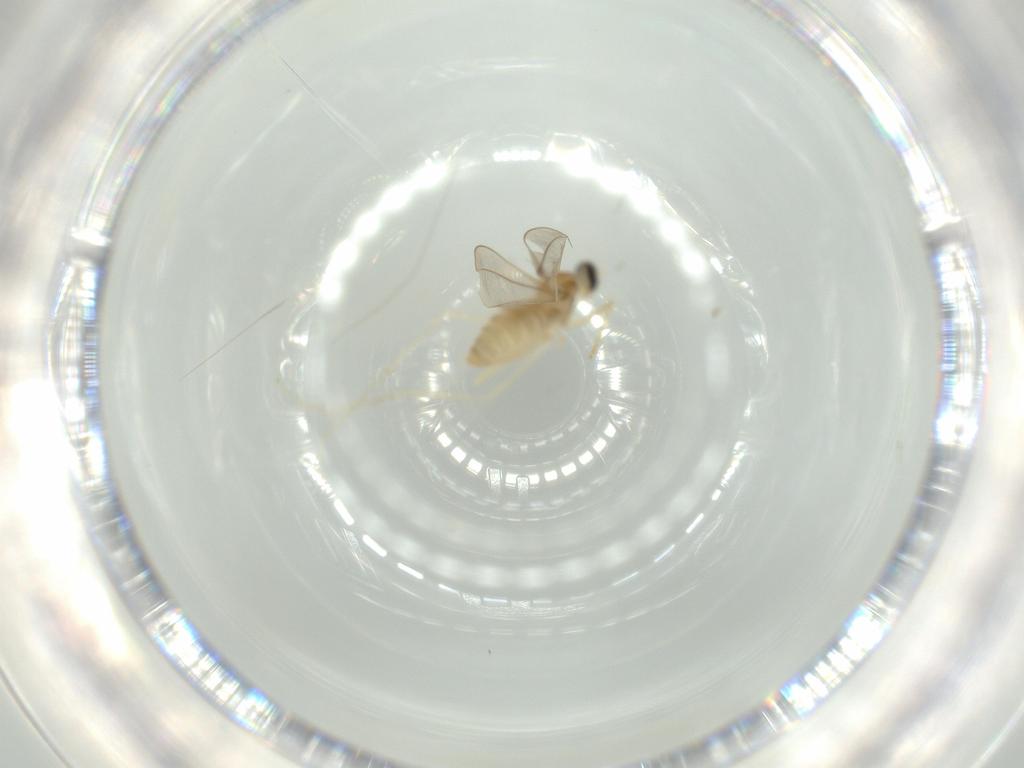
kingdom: Animalia
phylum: Arthropoda
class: Insecta
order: Diptera
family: Cecidomyiidae
